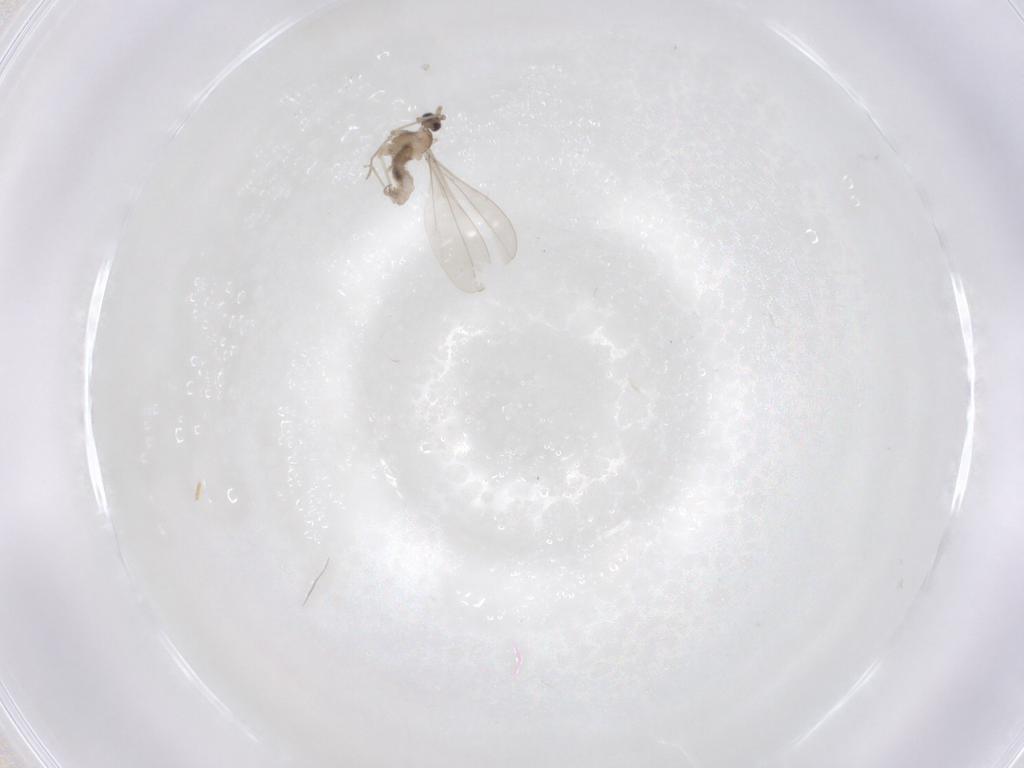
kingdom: Animalia
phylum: Arthropoda
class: Insecta
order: Diptera
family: Cecidomyiidae
